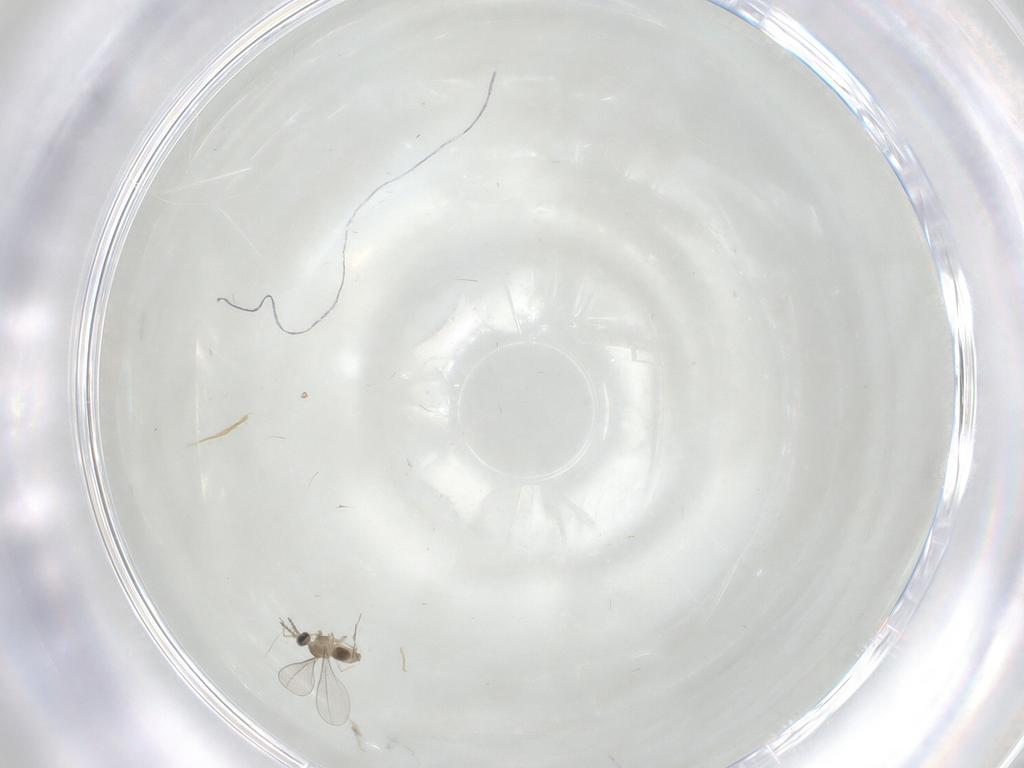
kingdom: Animalia
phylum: Arthropoda
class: Insecta
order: Diptera
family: Cecidomyiidae
